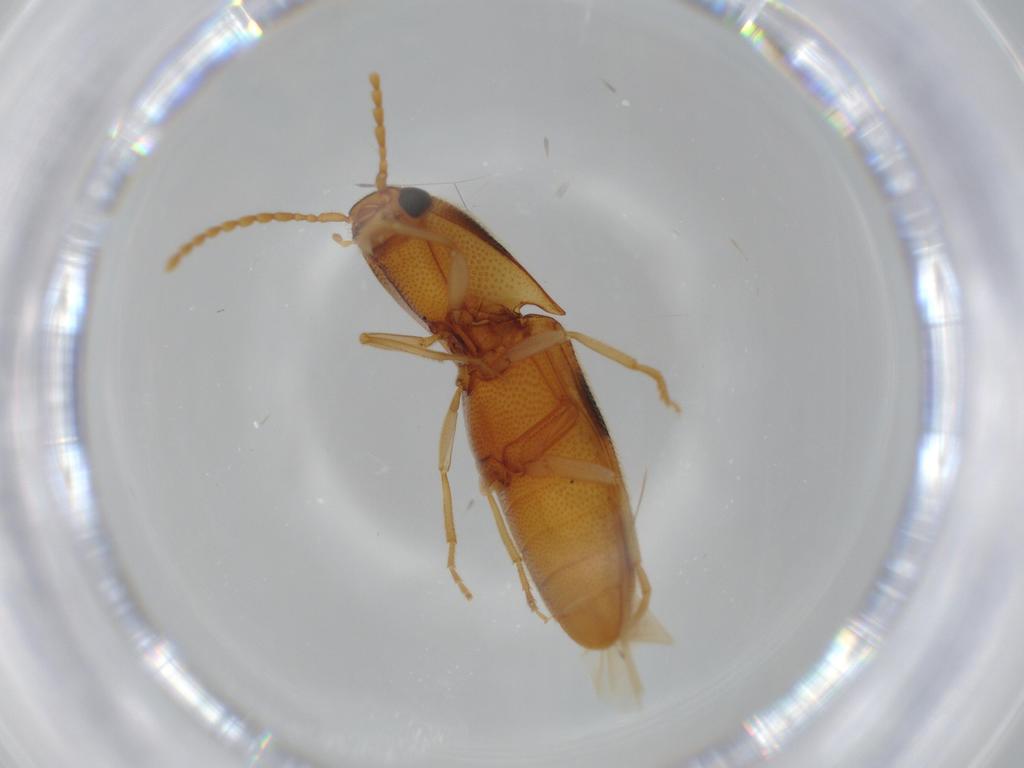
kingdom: Animalia
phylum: Arthropoda
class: Insecta
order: Coleoptera
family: Elateridae
